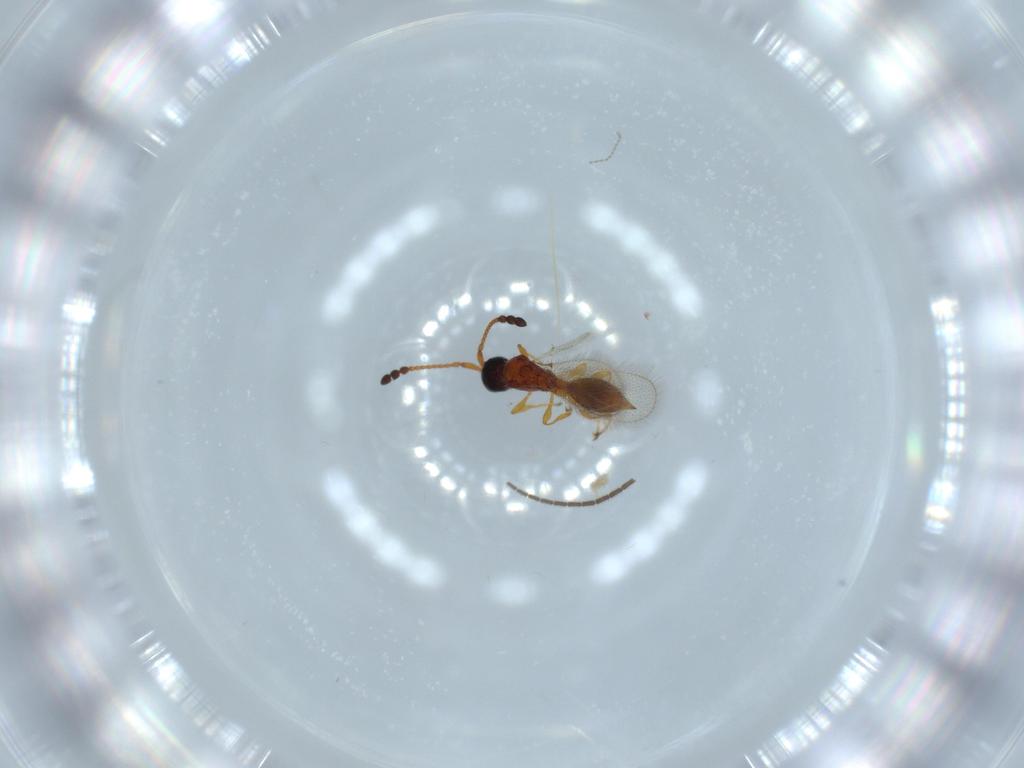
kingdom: Animalia
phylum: Arthropoda
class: Insecta
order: Hymenoptera
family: Diapriidae
